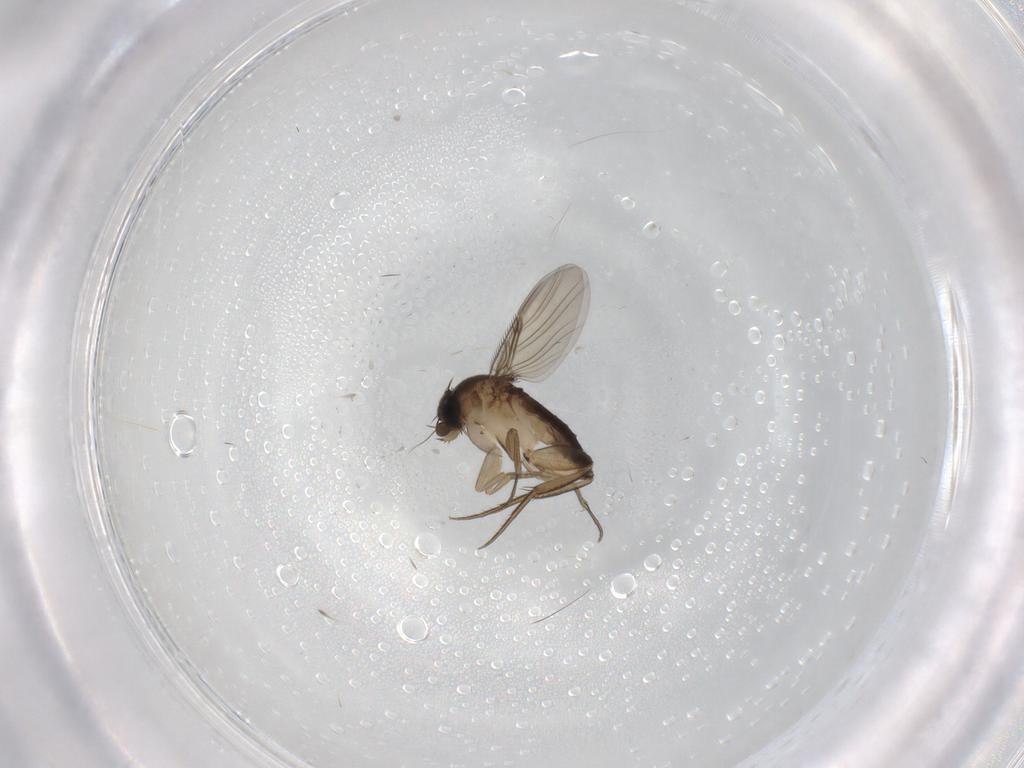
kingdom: Animalia
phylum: Arthropoda
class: Insecta
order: Diptera
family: Phoridae
